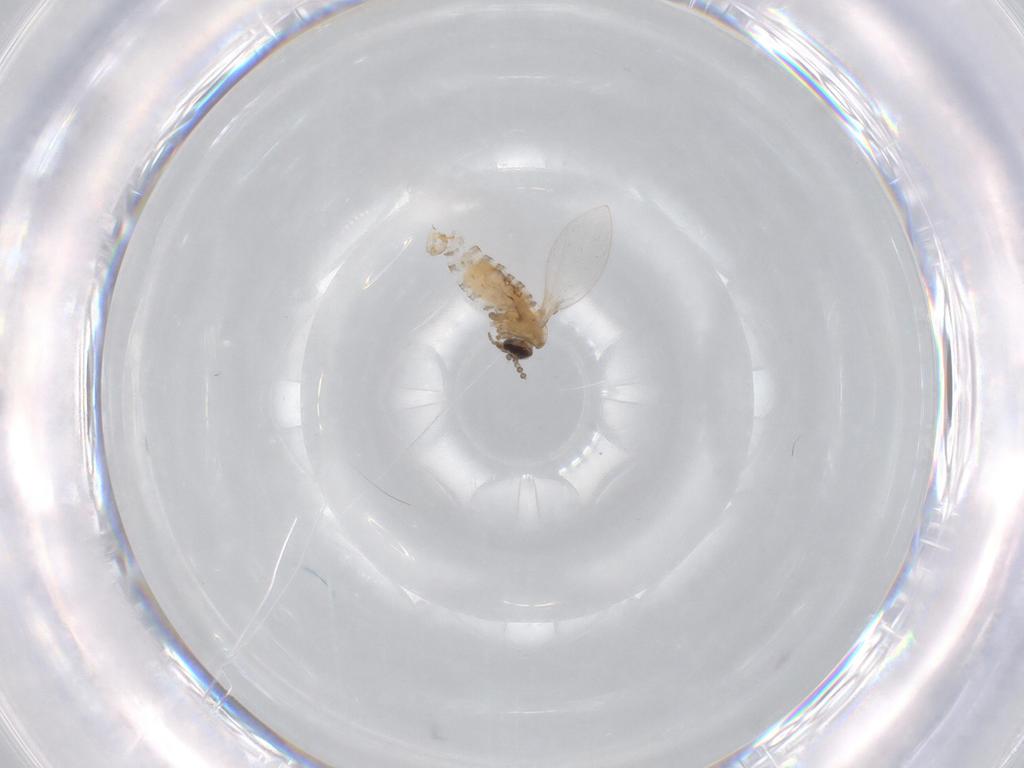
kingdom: Animalia
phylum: Arthropoda
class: Insecta
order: Diptera
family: Psychodidae
